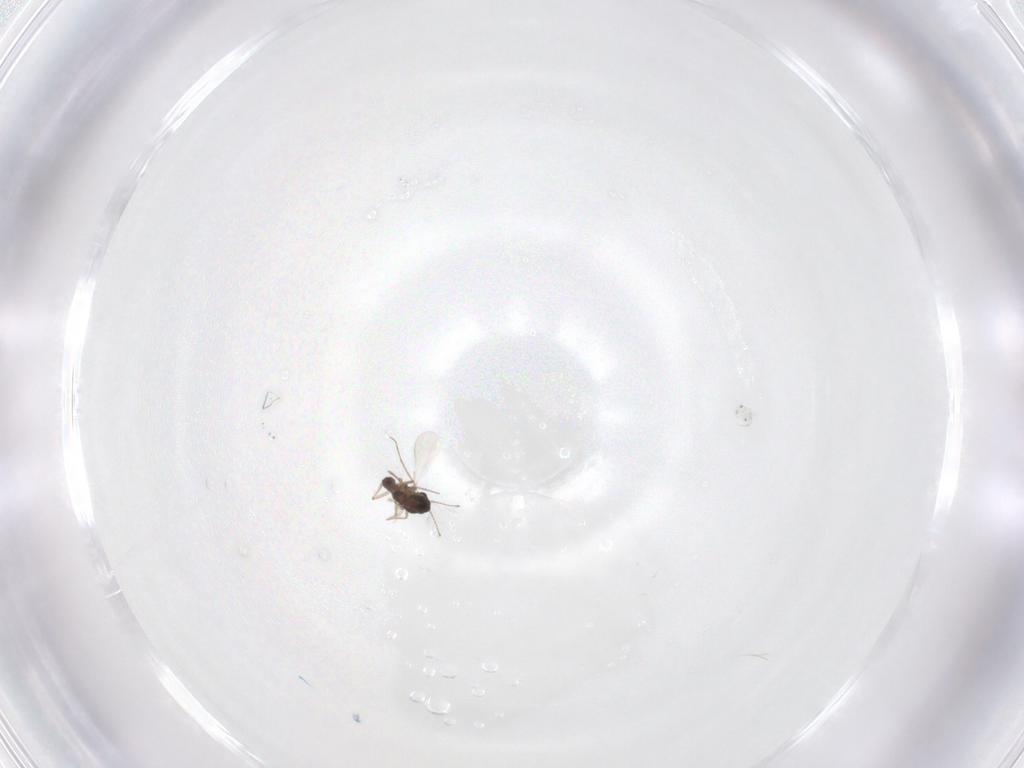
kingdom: Animalia
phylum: Arthropoda
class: Insecta
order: Diptera
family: Chironomidae
